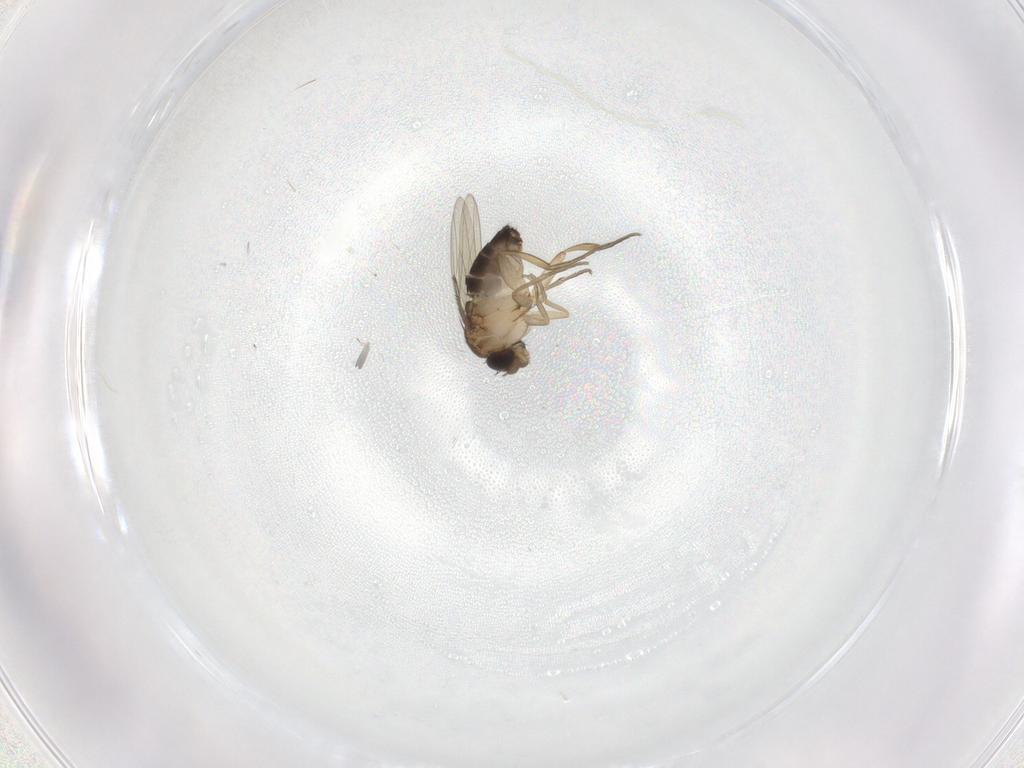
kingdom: Animalia
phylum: Arthropoda
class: Insecta
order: Diptera
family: Phoridae
